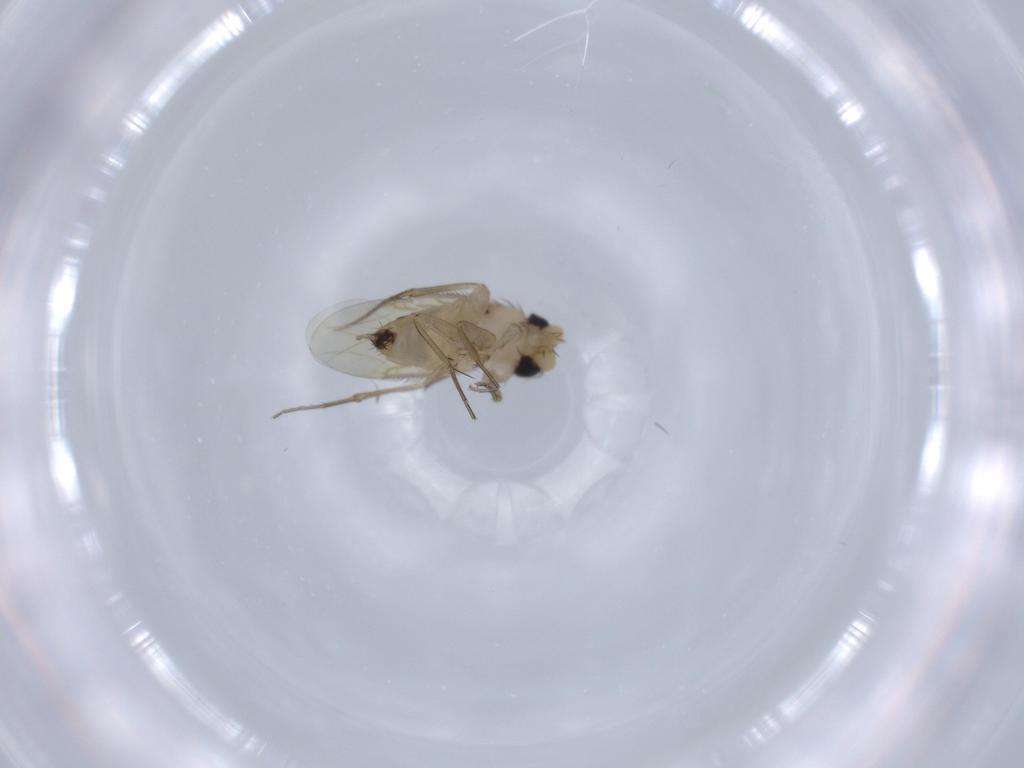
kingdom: Animalia
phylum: Arthropoda
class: Insecta
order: Diptera
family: Phoridae
